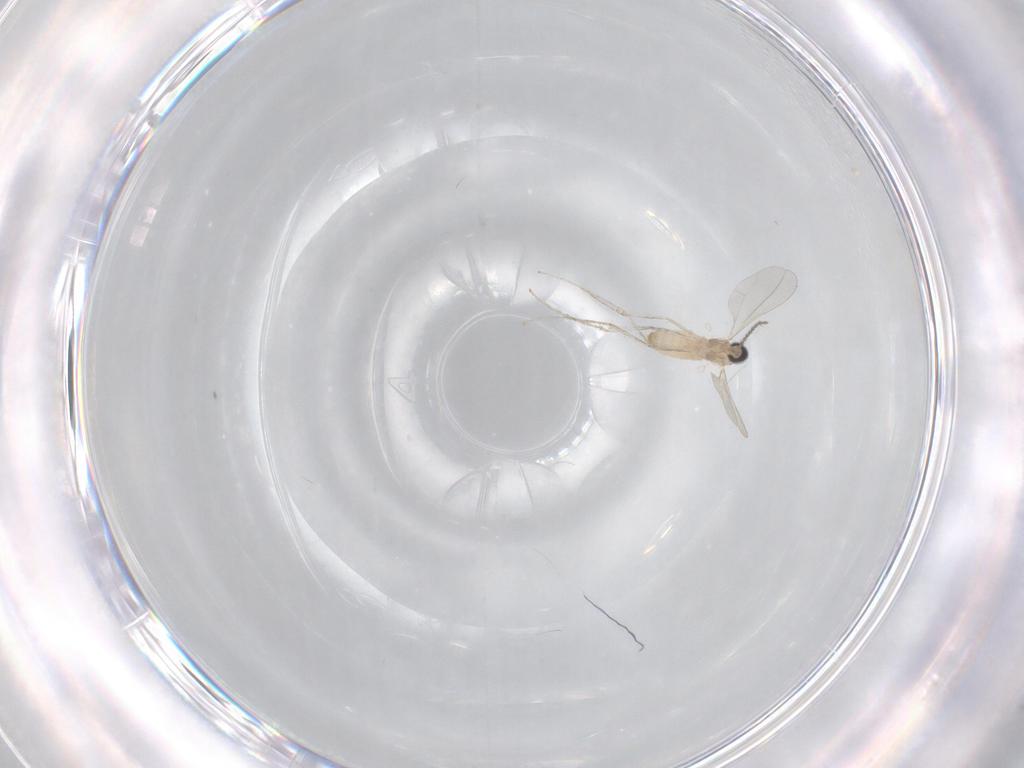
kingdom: Animalia
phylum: Arthropoda
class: Insecta
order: Diptera
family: Cecidomyiidae
